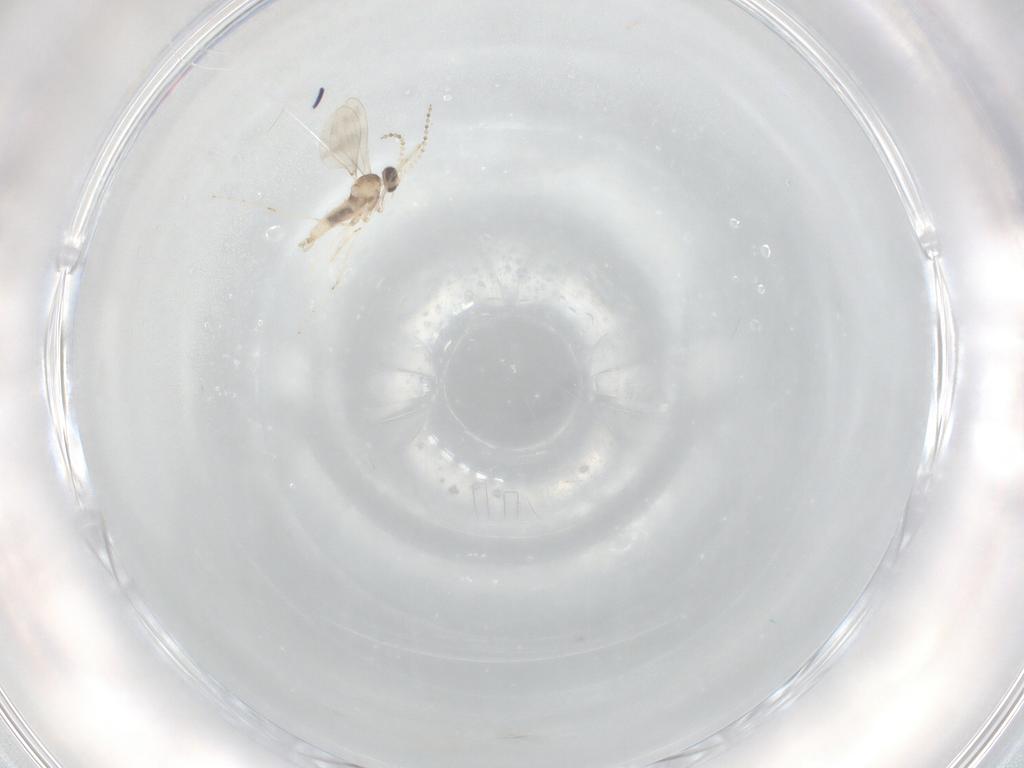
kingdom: Animalia
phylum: Arthropoda
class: Insecta
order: Diptera
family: Cecidomyiidae
